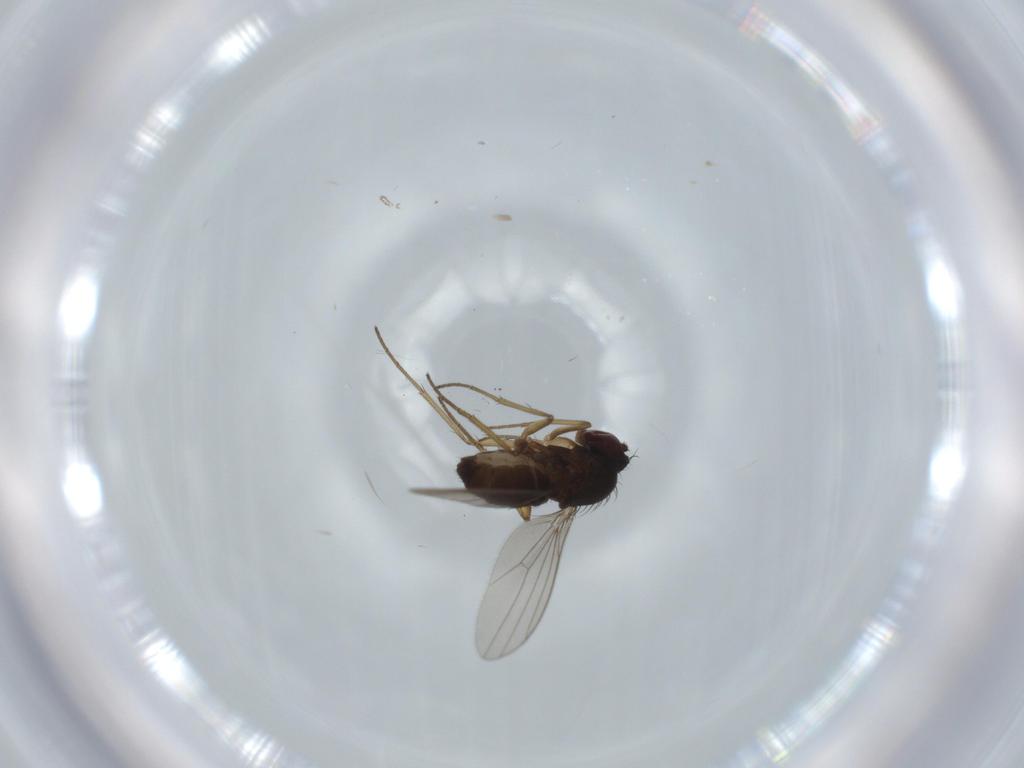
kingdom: Animalia
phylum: Arthropoda
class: Insecta
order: Diptera
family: Dolichopodidae
